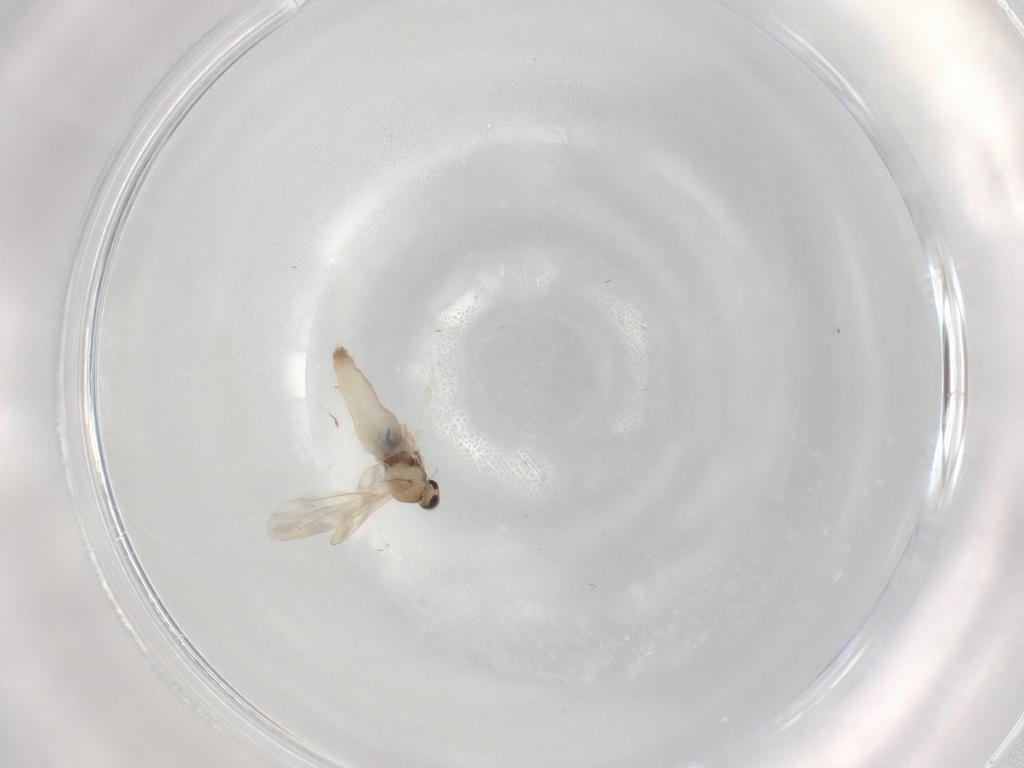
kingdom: Animalia
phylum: Arthropoda
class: Insecta
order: Diptera
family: Cecidomyiidae
